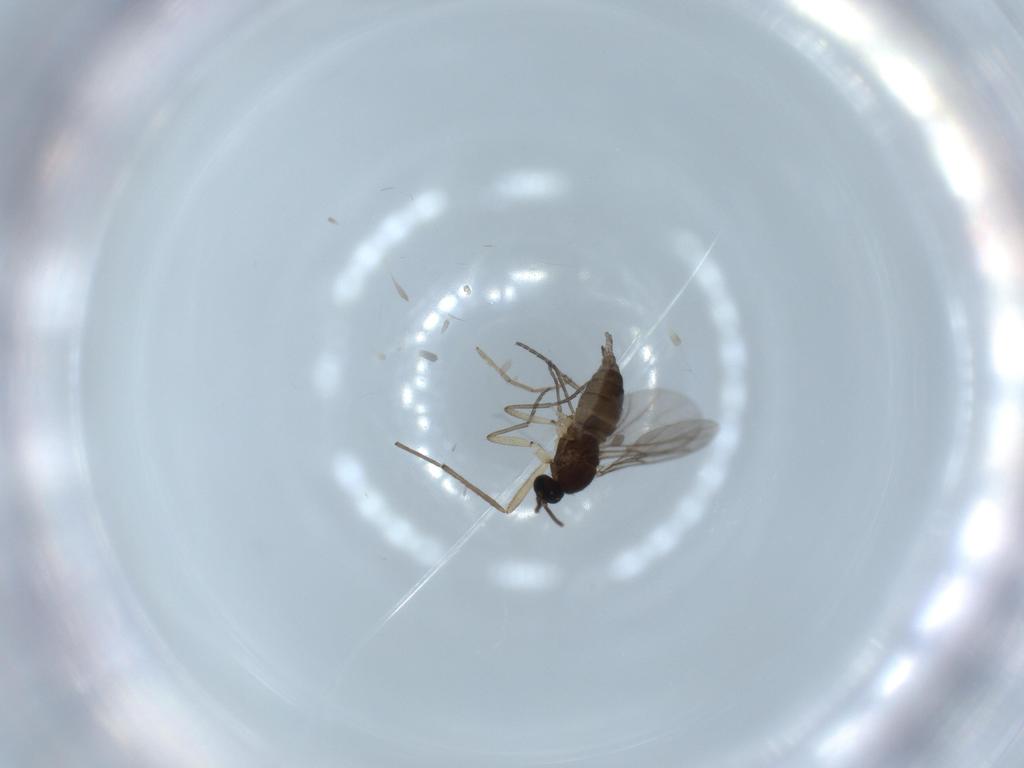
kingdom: Animalia
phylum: Arthropoda
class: Insecta
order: Diptera
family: Sciaridae
